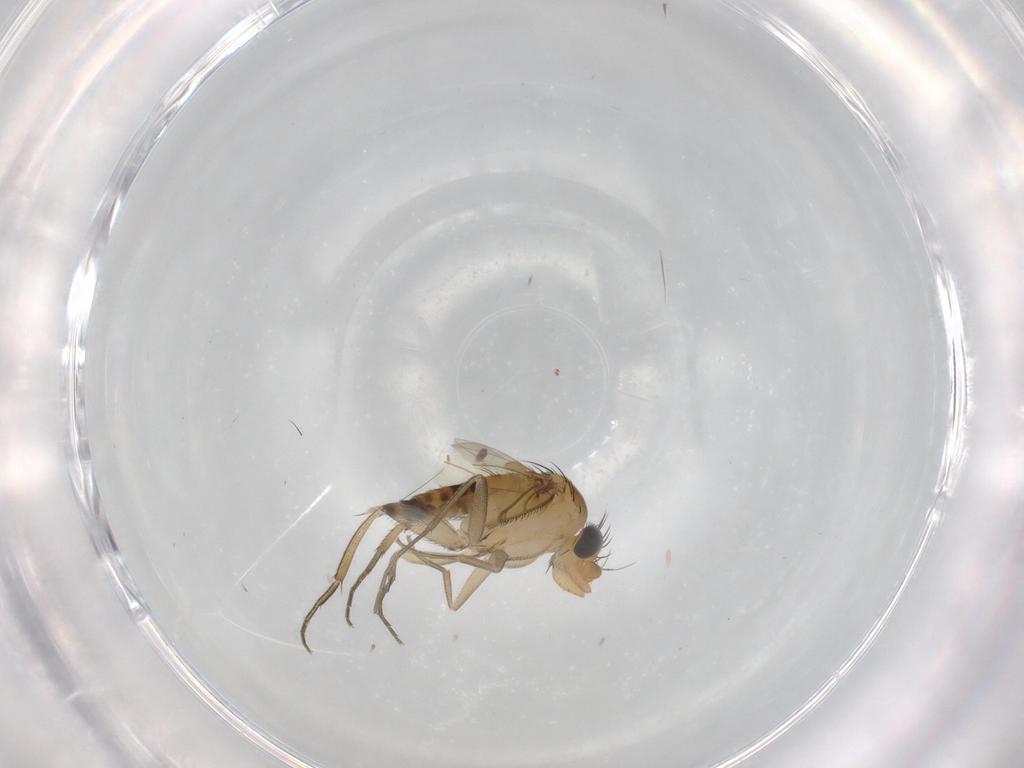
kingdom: Animalia
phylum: Arthropoda
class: Insecta
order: Diptera
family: Phoridae
